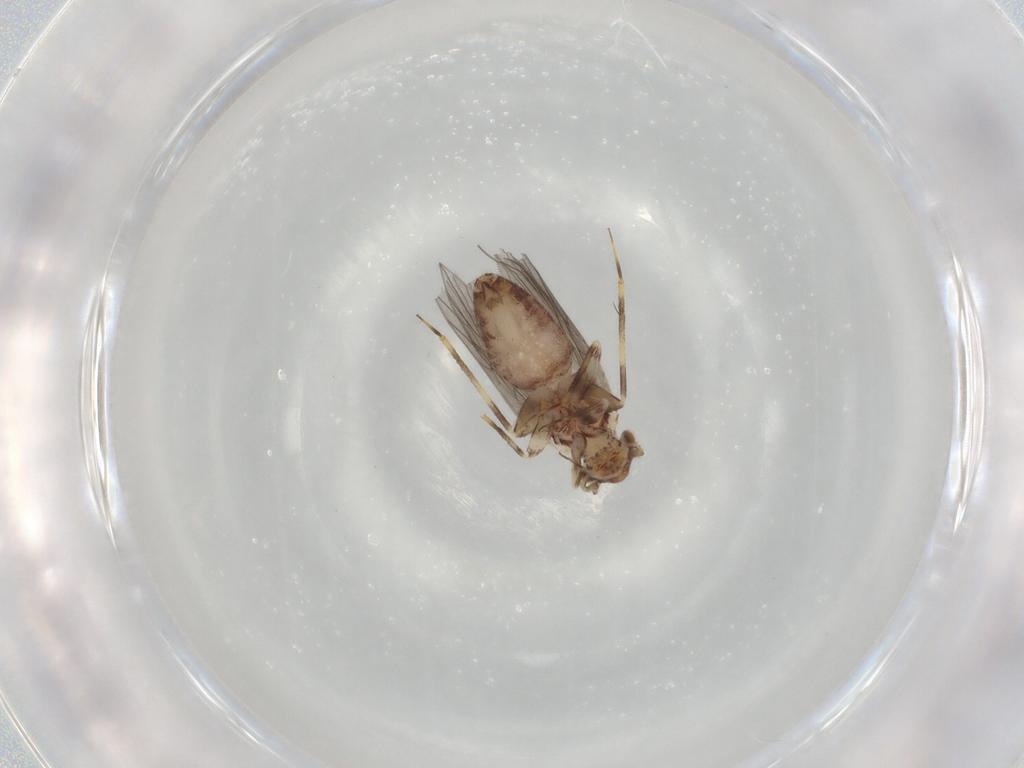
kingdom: Animalia
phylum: Arthropoda
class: Insecta
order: Psocodea
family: Lepidopsocidae
